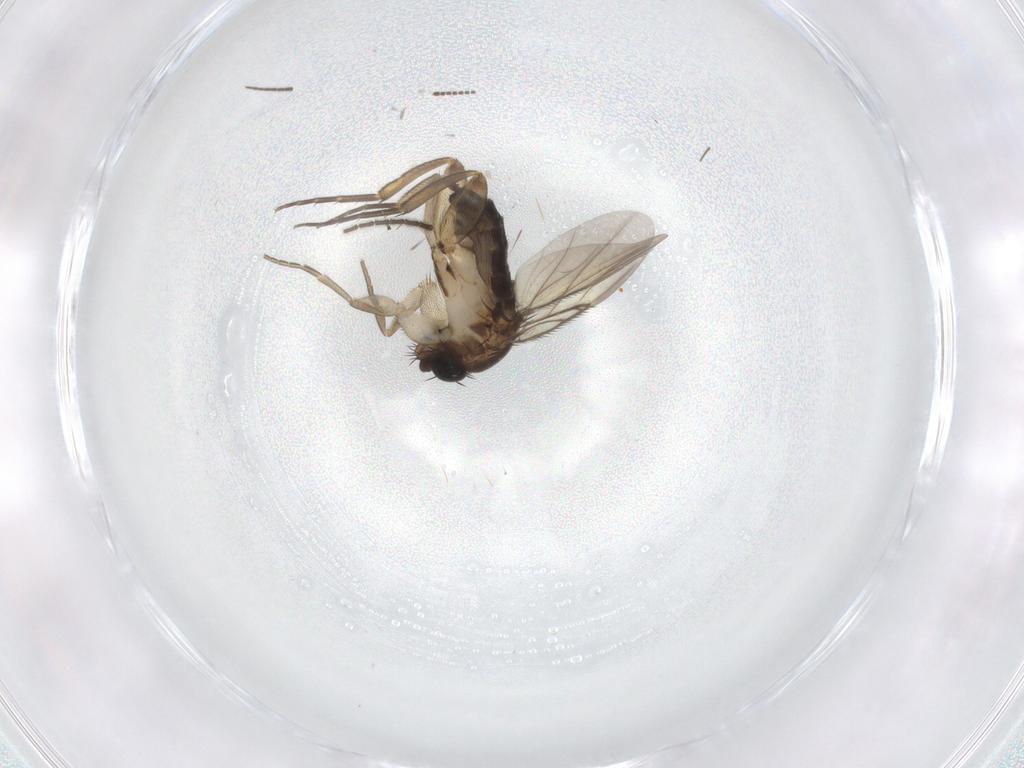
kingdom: Animalia
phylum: Arthropoda
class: Insecta
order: Diptera
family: Phoridae
